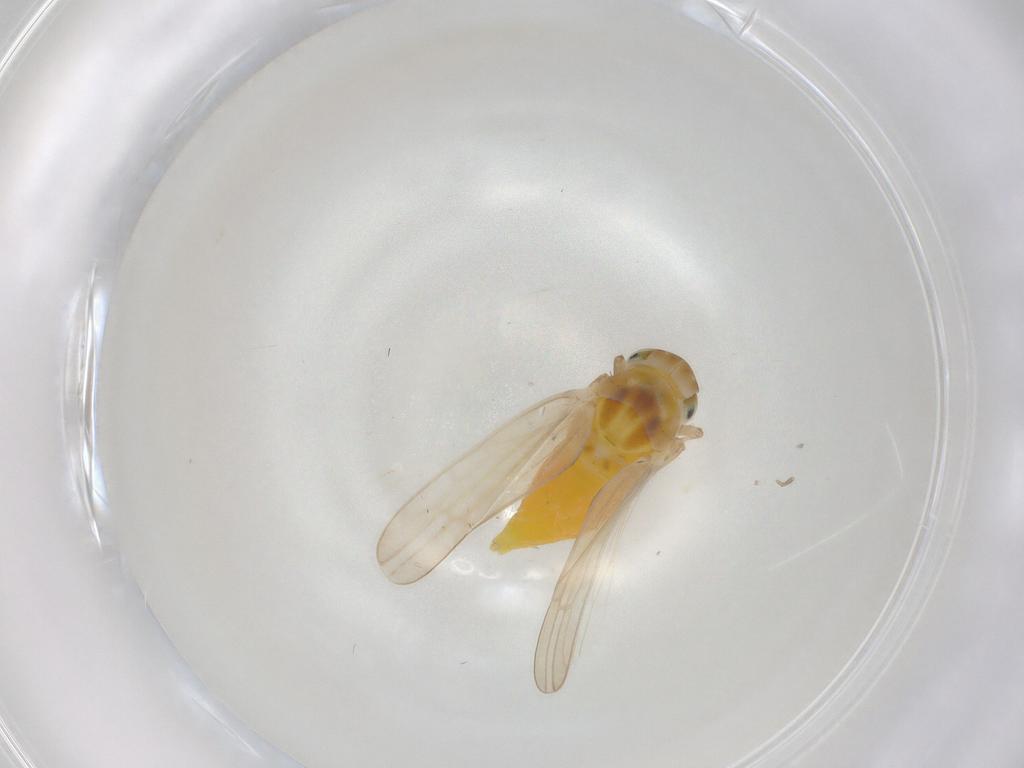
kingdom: Animalia
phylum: Arthropoda
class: Insecta
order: Hemiptera
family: Cicadellidae
